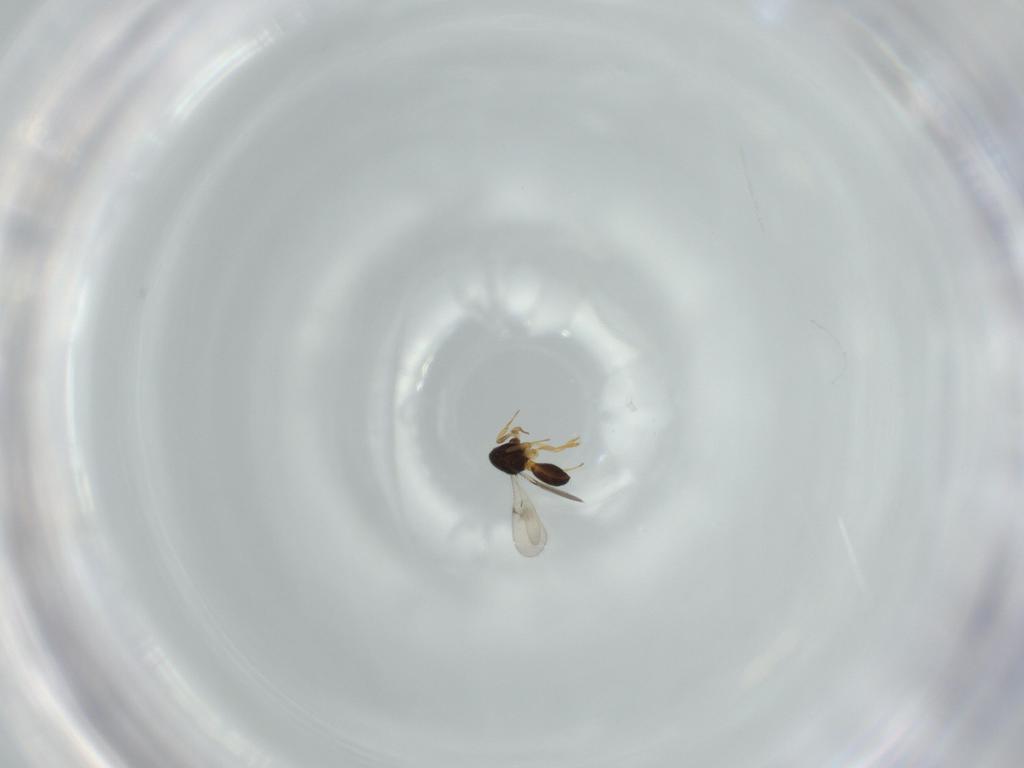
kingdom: Animalia
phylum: Arthropoda
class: Insecta
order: Hymenoptera
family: Scelionidae
